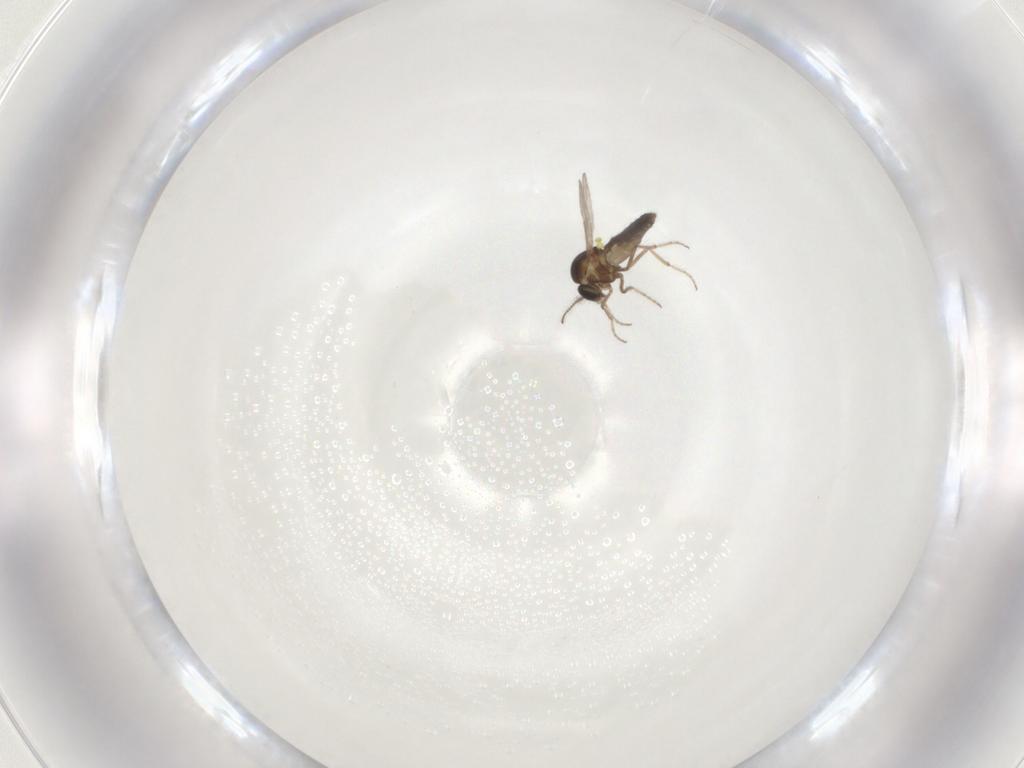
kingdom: Animalia
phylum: Arthropoda
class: Insecta
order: Diptera
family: Ceratopogonidae
